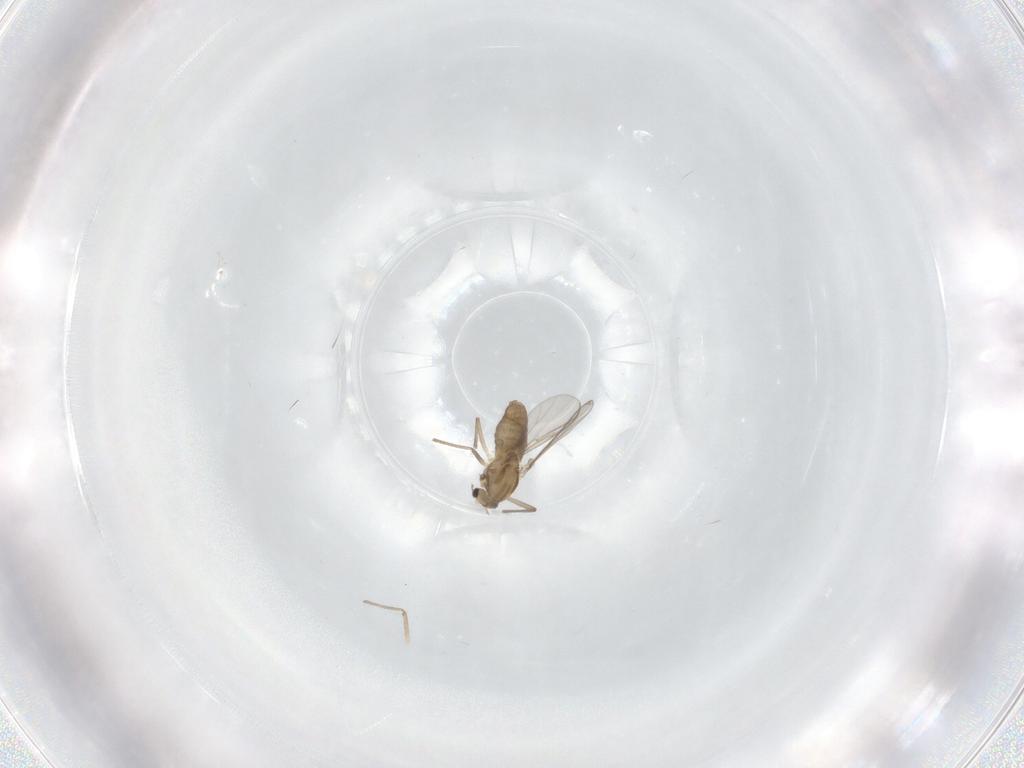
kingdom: Animalia
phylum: Arthropoda
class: Insecta
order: Diptera
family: Chironomidae
